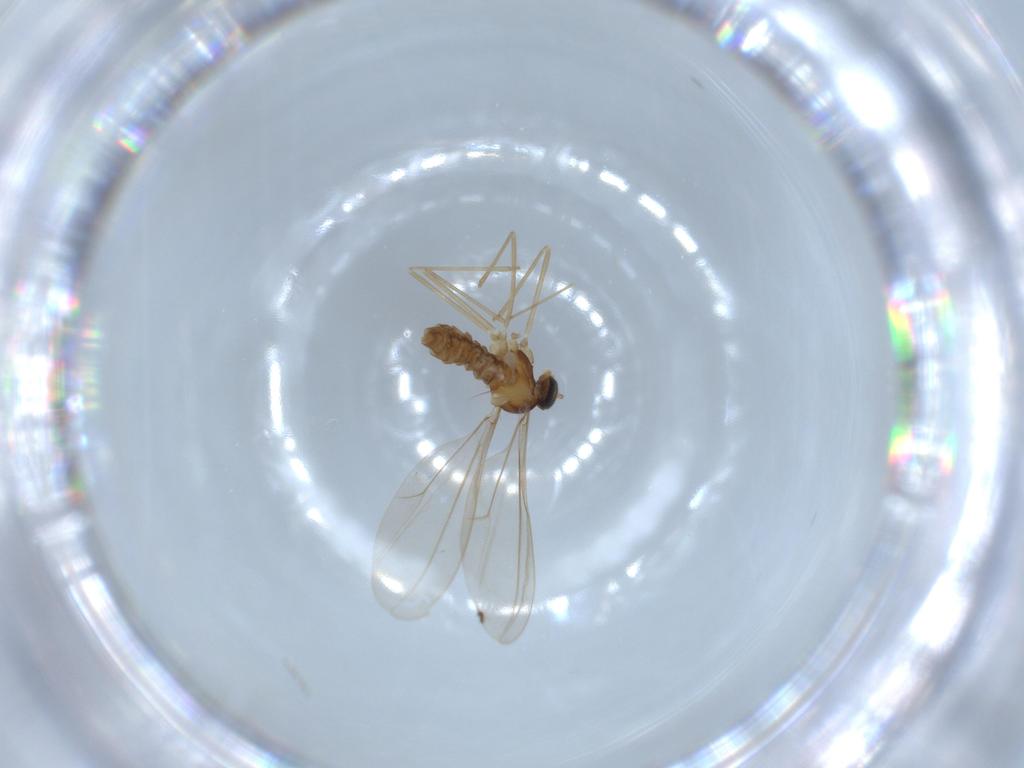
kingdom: Animalia
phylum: Arthropoda
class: Insecta
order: Diptera
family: Cecidomyiidae
